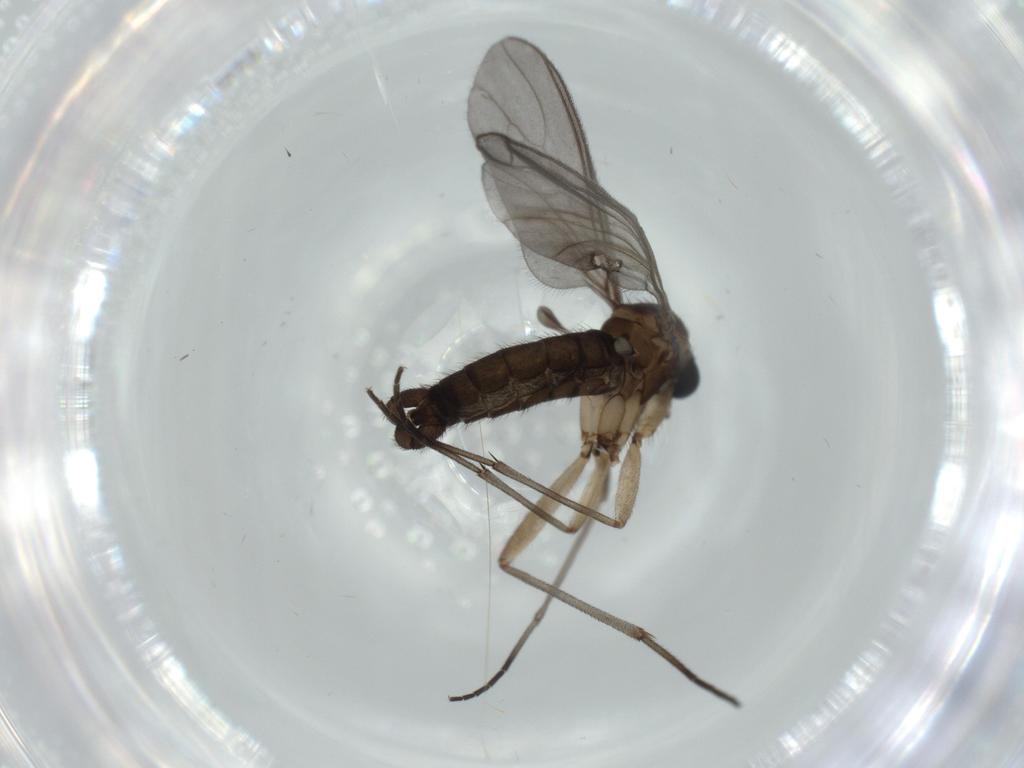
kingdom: Animalia
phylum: Arthropoda
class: Insecta
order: Diptera
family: Sciaridae
